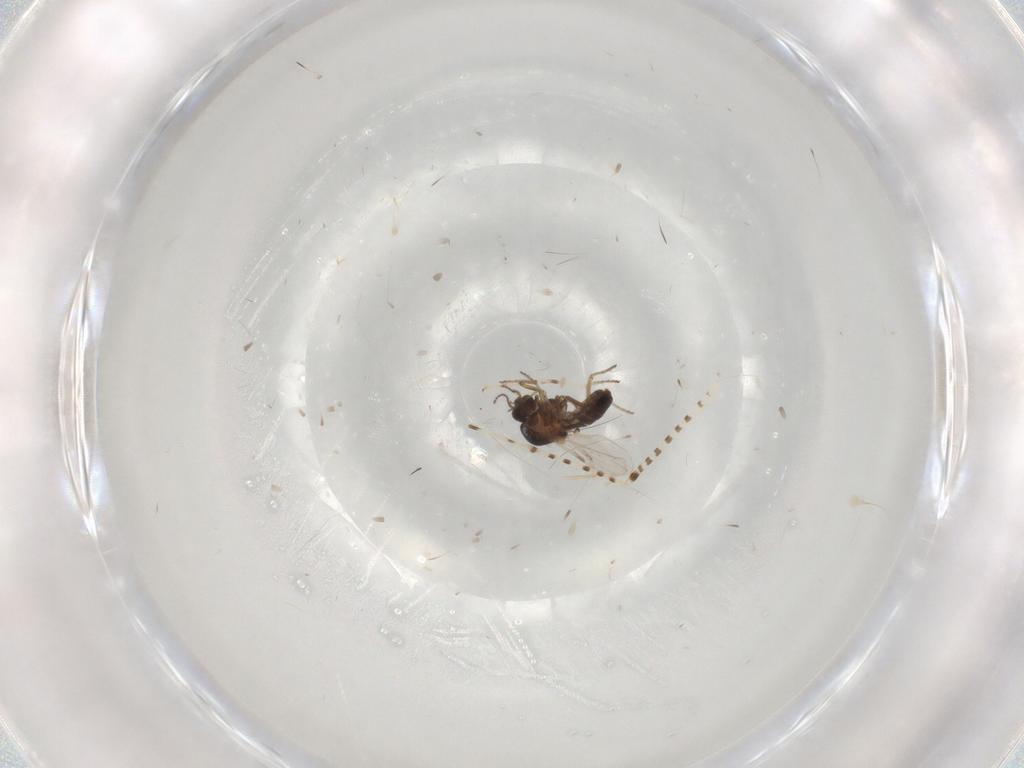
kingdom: Animalia
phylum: Arthropoda
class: Insecta
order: Diptera
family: Ceratopogonidae
